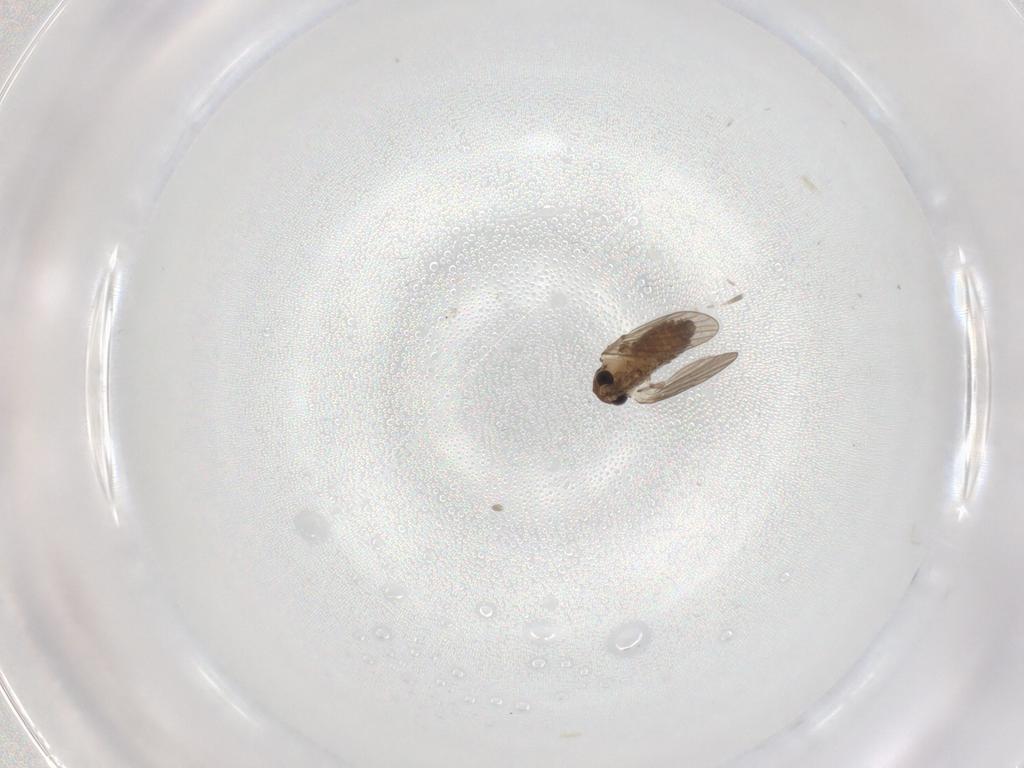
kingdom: Animalia
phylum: Arthropoda
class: Insecta
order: Diptera
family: Psychodidae
